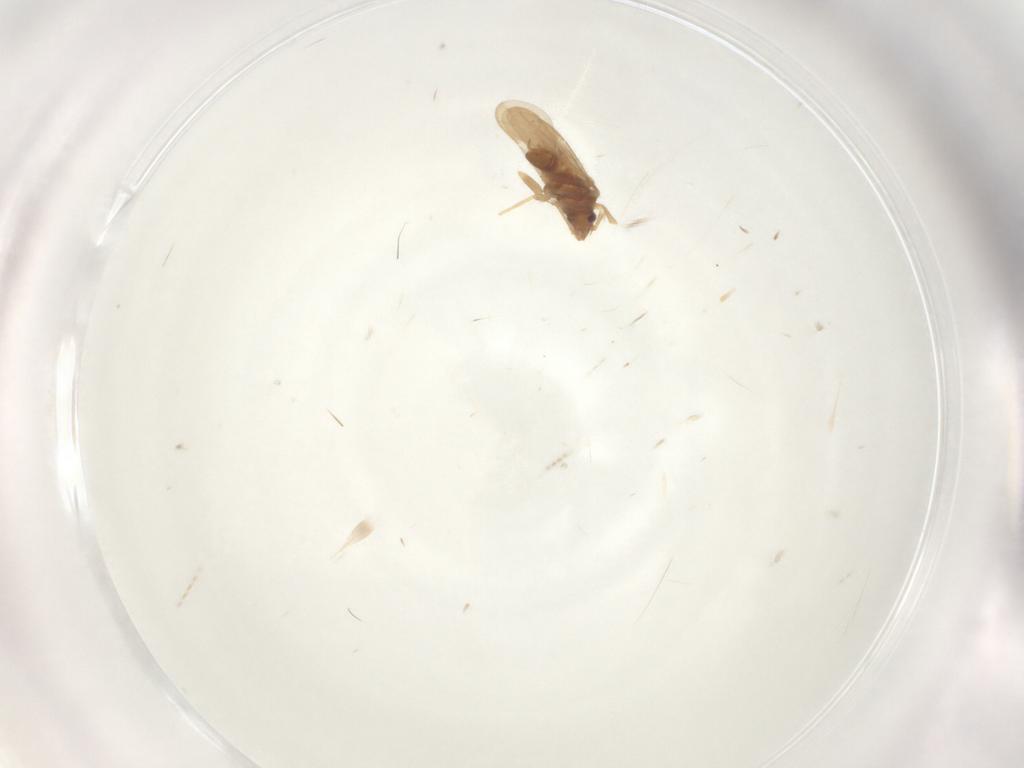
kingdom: Animalia
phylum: Arthropoda
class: Insecta
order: Hemiptera
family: Ceratocombidae
